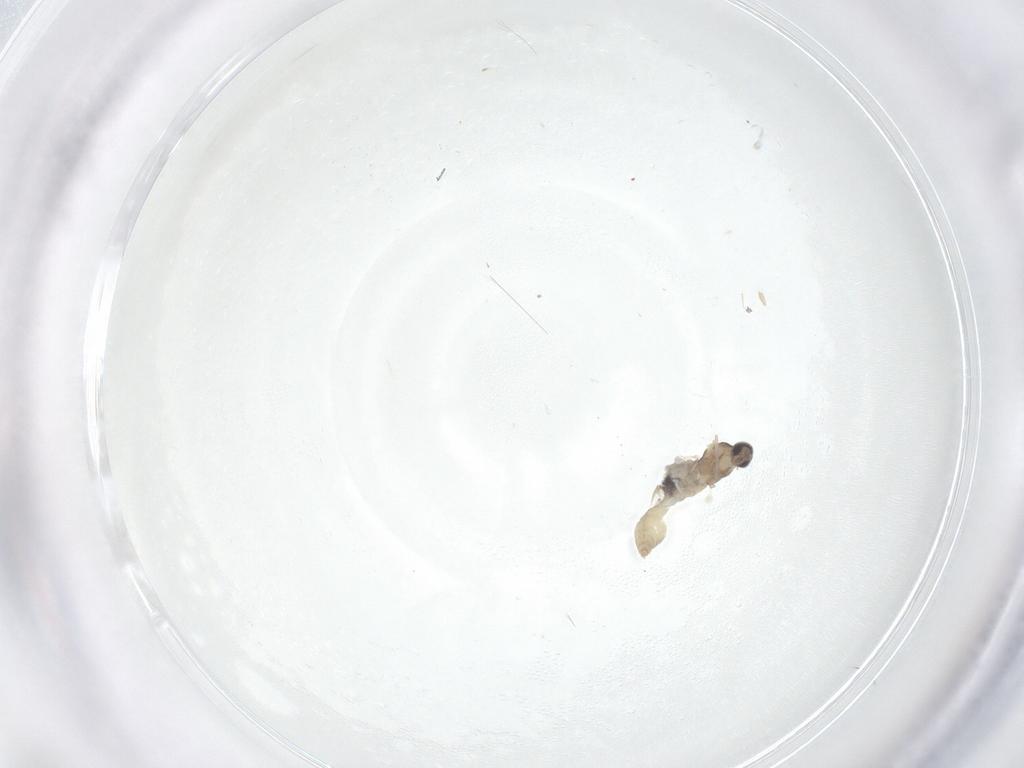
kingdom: Animalia
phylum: Arthropoda
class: Insecta
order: Diptera
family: Cecidomyiidae
